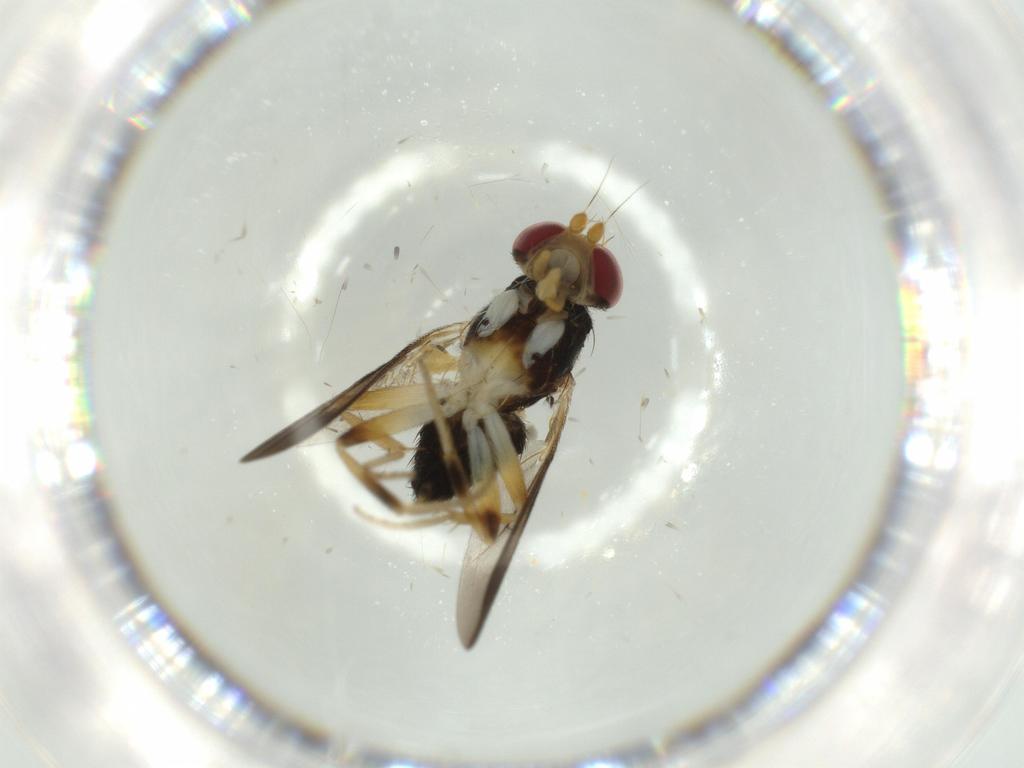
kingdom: Animalia
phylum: Arthropoda
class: Insecta
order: Diptera
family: Clusiidae
